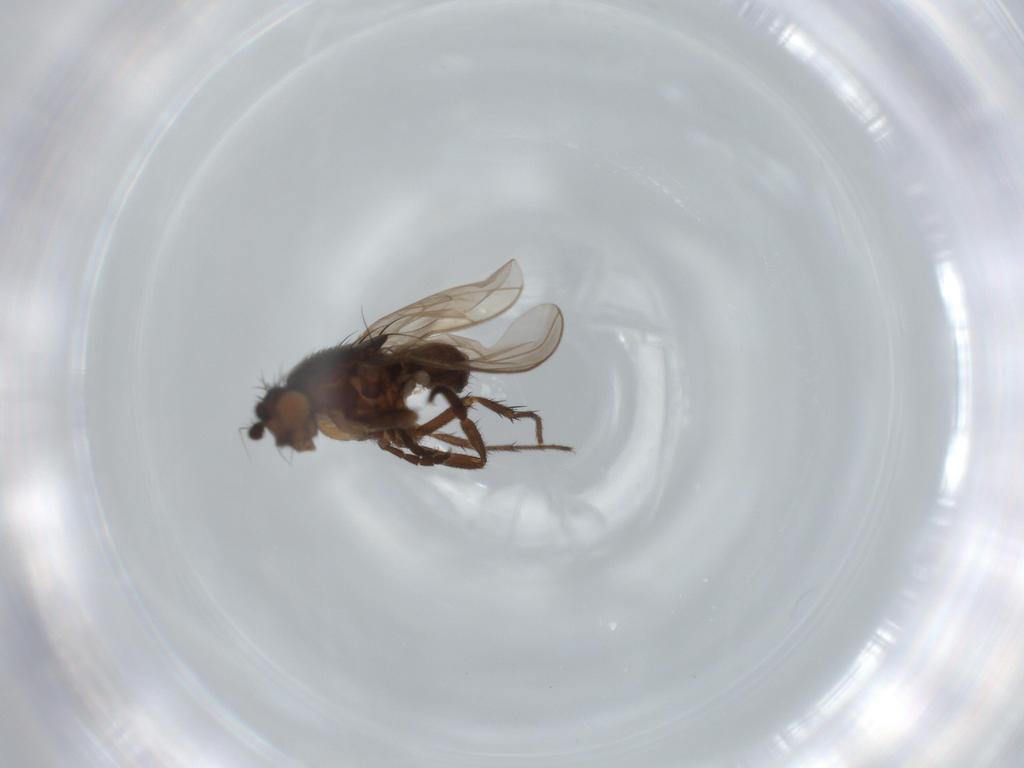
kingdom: Animalia
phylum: Arthropoda
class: Insecta
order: Diptera
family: Sphaeroceridae
